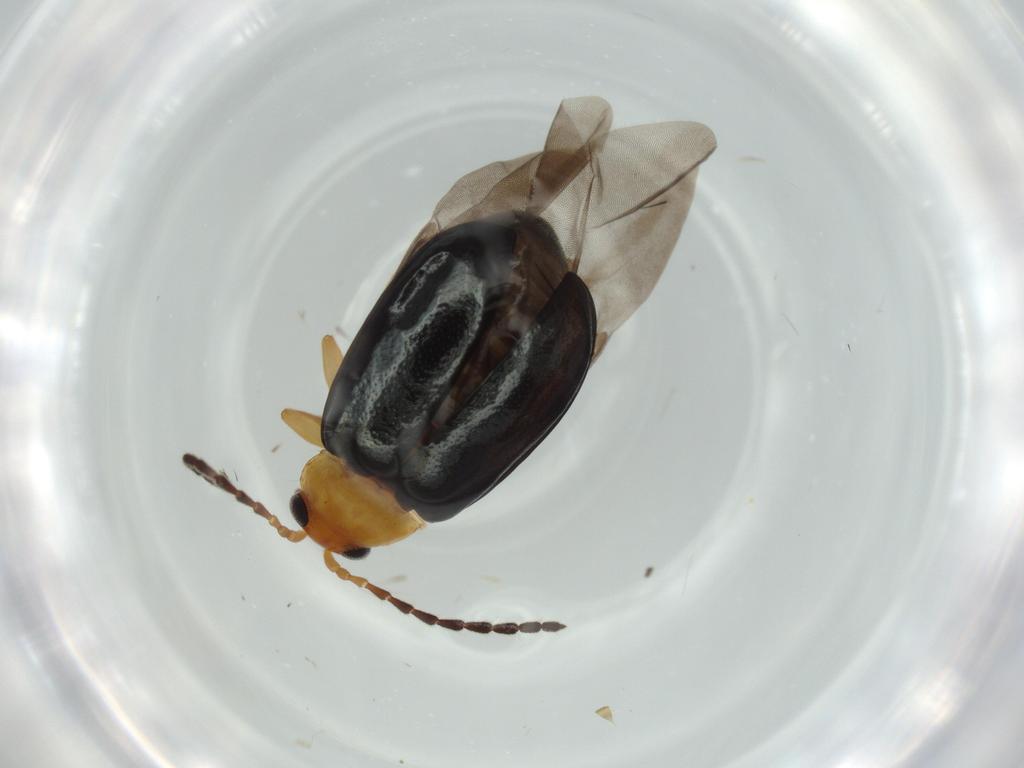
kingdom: Animalia
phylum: Arthropoda
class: Insecta
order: Coleoptera
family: Chrysomelidae
